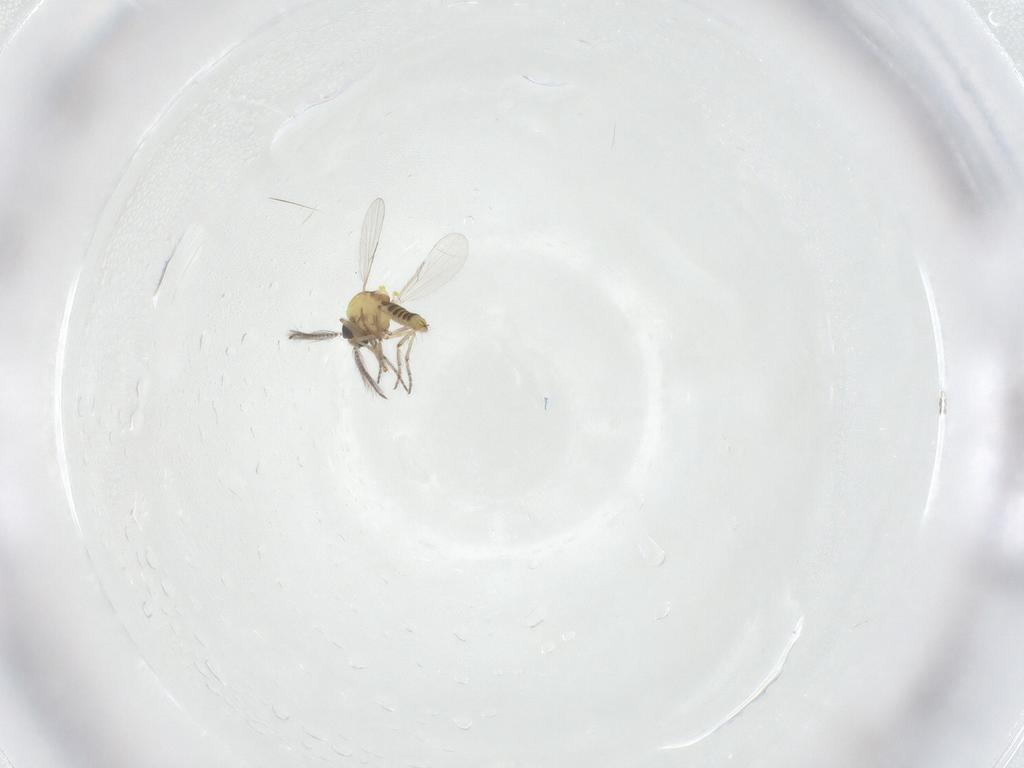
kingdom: Animalia
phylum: Arthropoda
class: Insecta
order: Diptera
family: Ceratopogonidae
